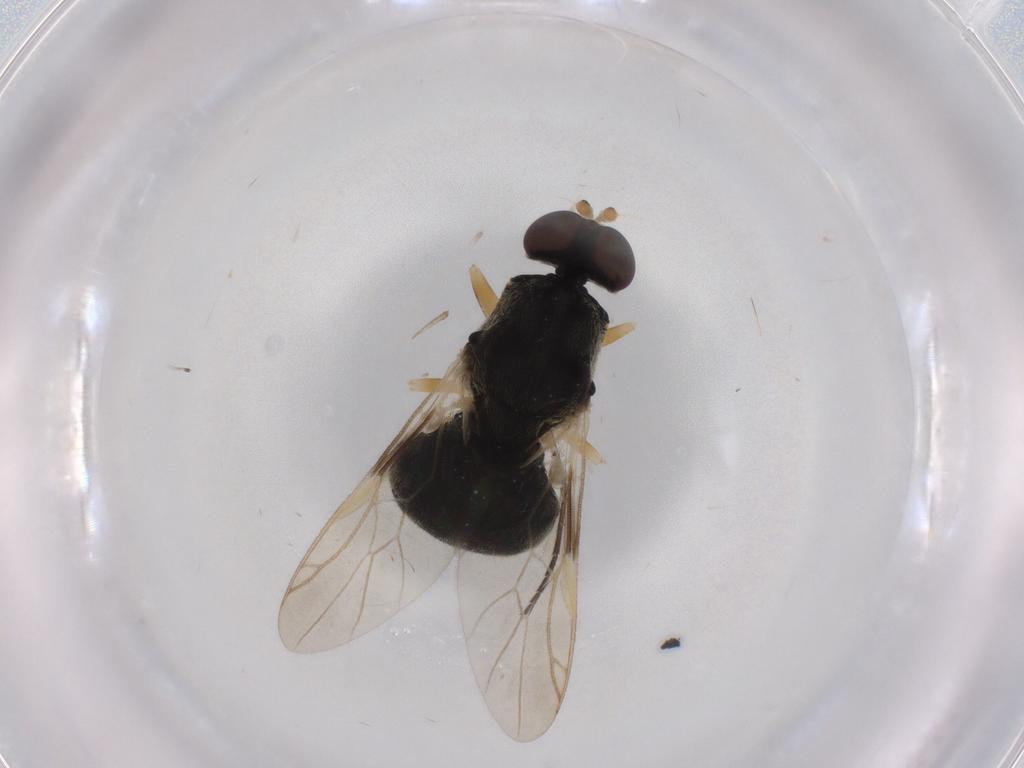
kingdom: Animalia
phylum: Arthropoda
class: Insecta
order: Diptera
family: Stratiomyidae
